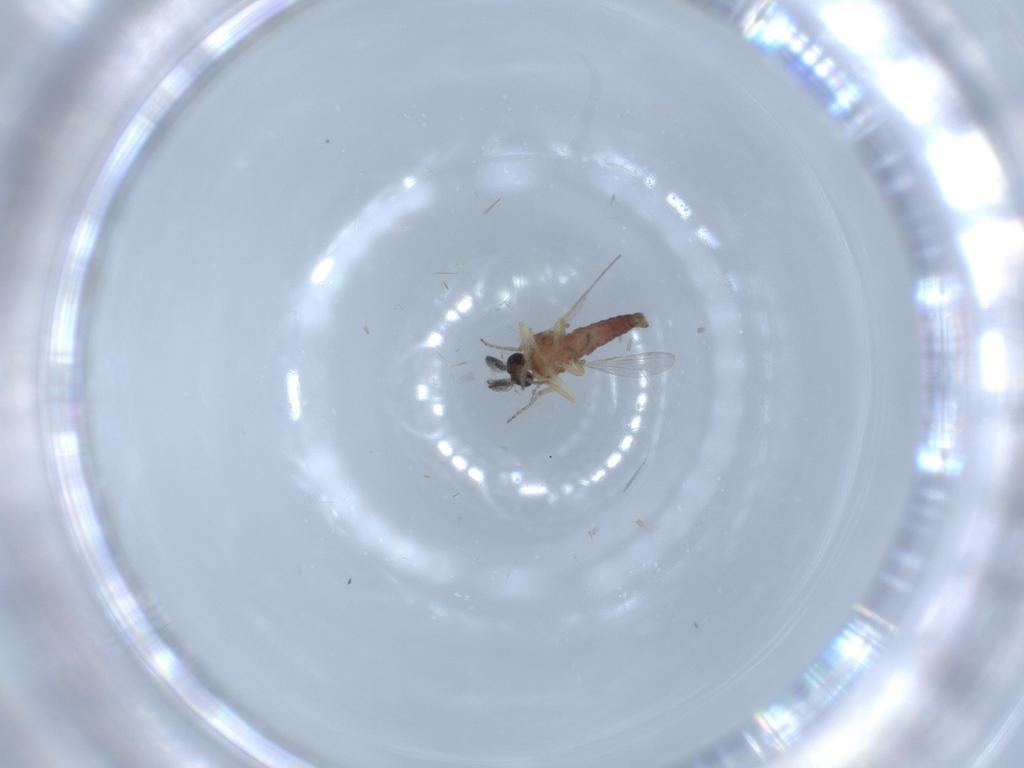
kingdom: Animalia
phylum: Arthropoda
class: Insecta
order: Diptera
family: Ceratopogonidae
